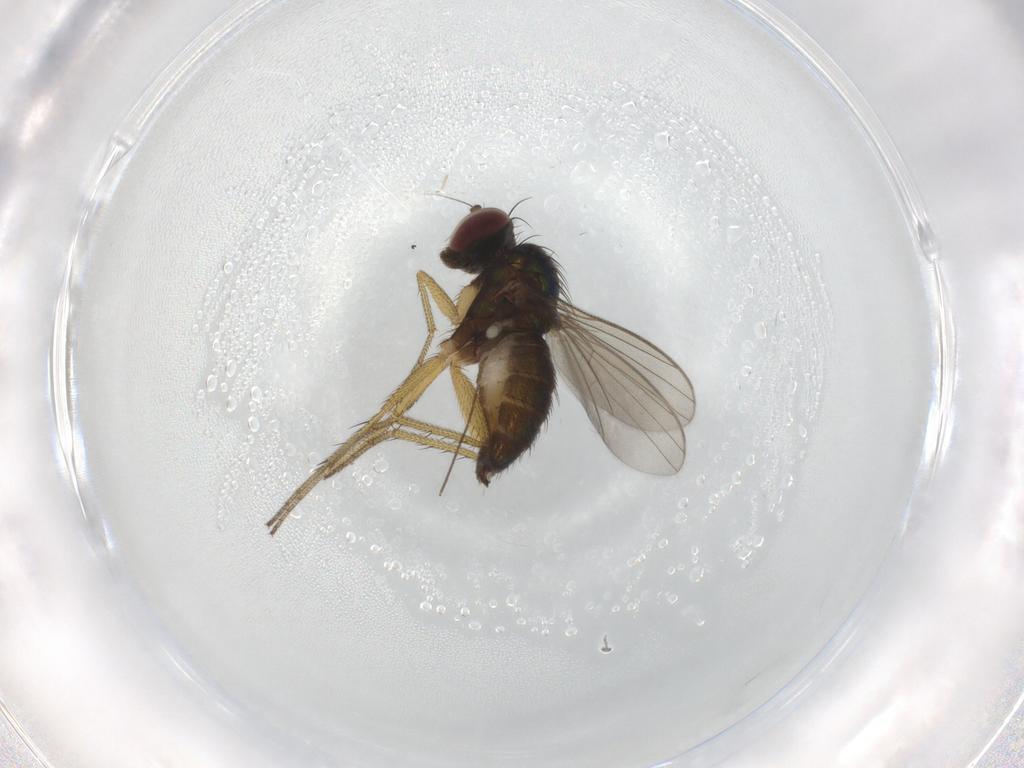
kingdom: Animalia
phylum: Arthropoda
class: Insecta
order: Diptera
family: Dolichopodidae
